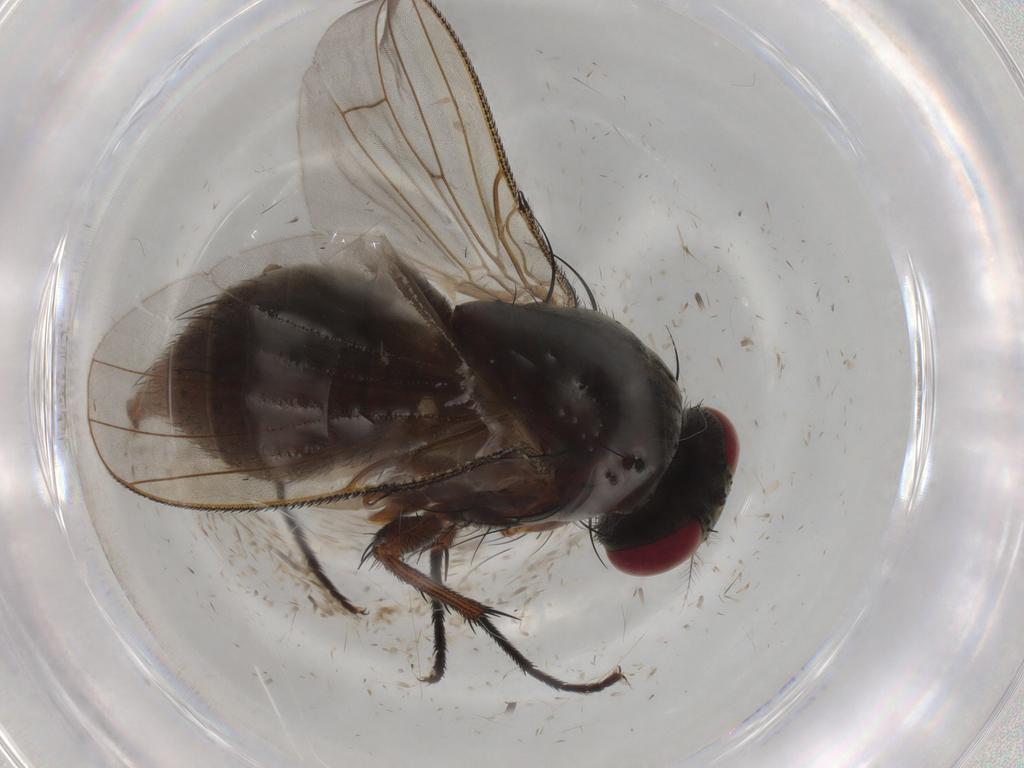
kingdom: Animalia
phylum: Arthropoda
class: Insecta
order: Diptera
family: Muscidae
